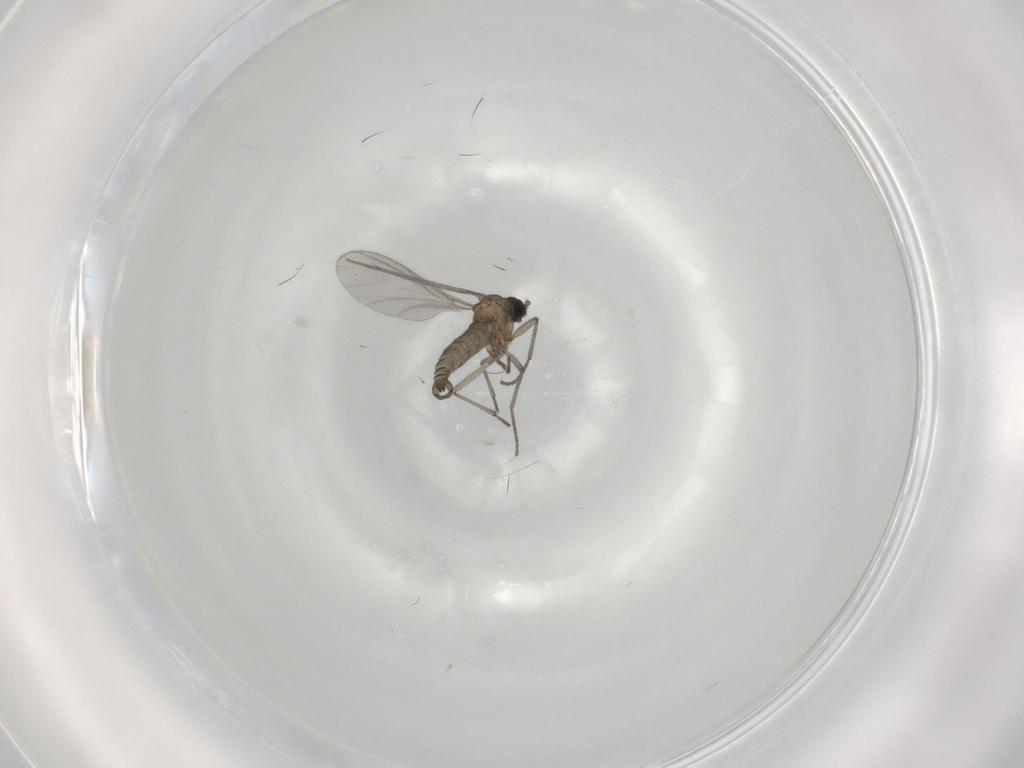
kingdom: Animalia
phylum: Arthropoda
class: Insecta
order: Diptera
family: Sciaridae
